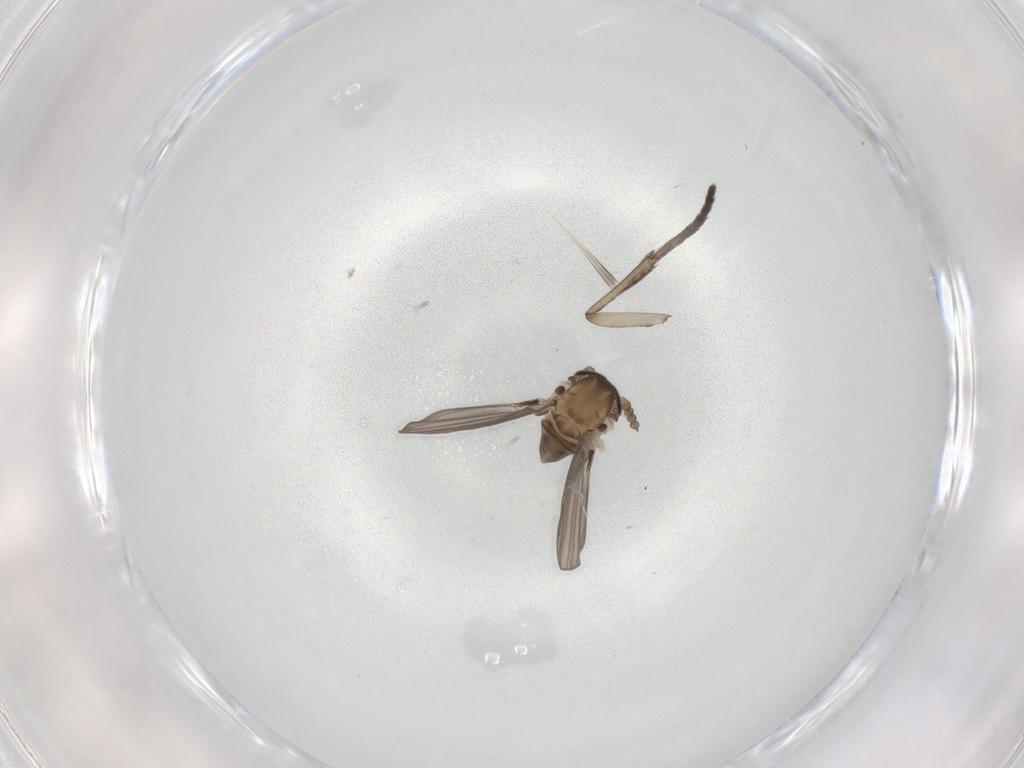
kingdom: Animalia
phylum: Arthropoda
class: Insecta
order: Diptera
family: Psychodidae
